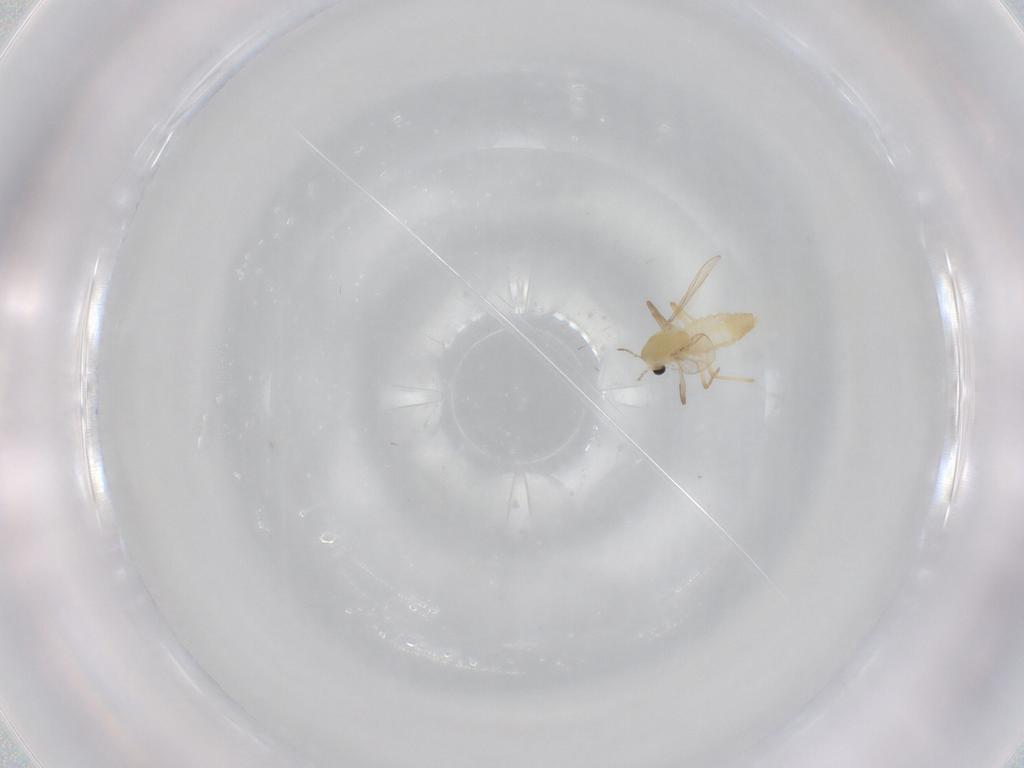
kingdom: Animalia
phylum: Arthropoda
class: Insecta
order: Diptera
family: Chironomidae
